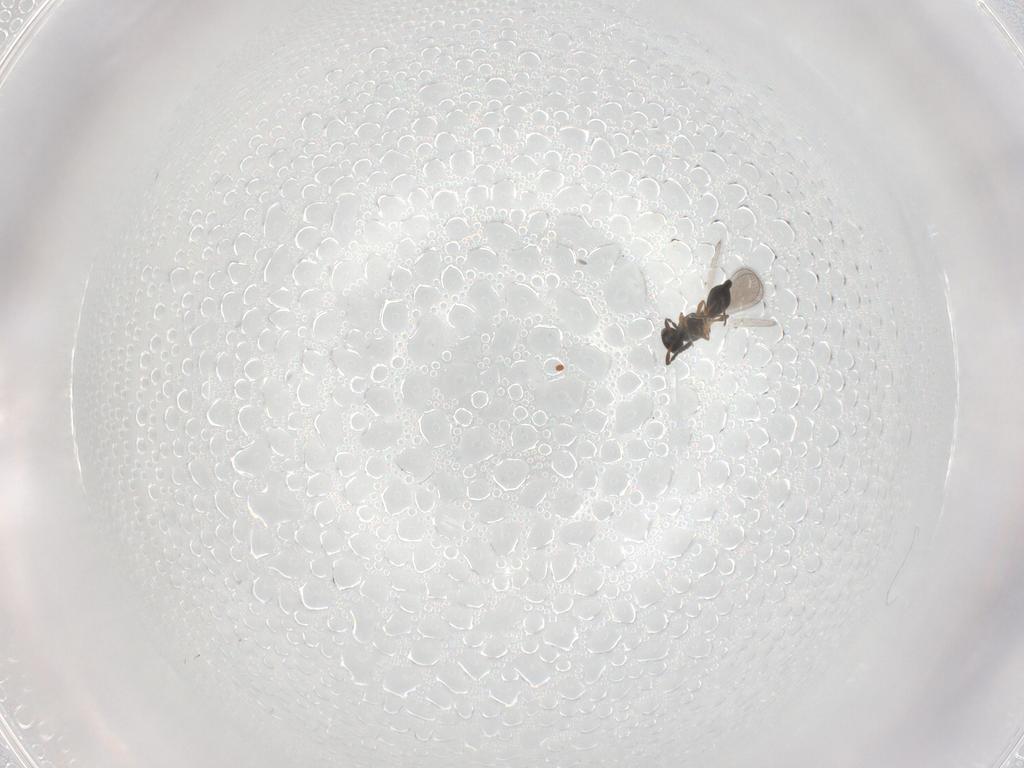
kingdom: Animalia
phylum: Arthropoda
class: Insecta
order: Hymenoptera
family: Platygastridae
